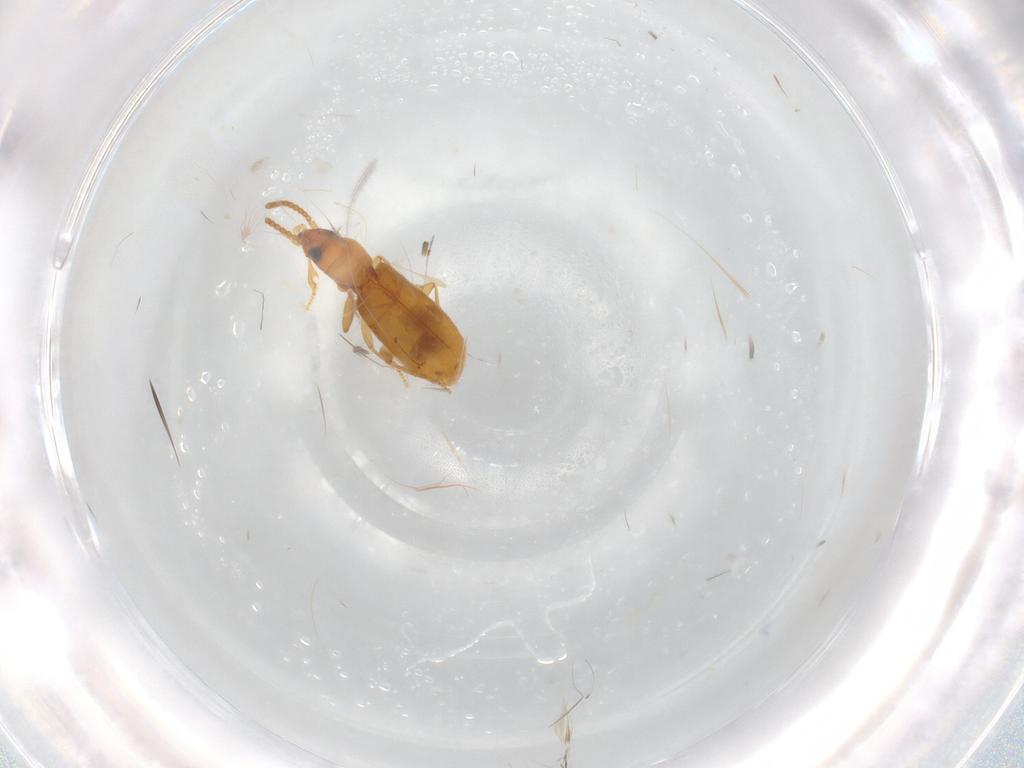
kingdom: Animalia
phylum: Arthropoda
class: Insecta
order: Coleoptera
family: Carabidae
